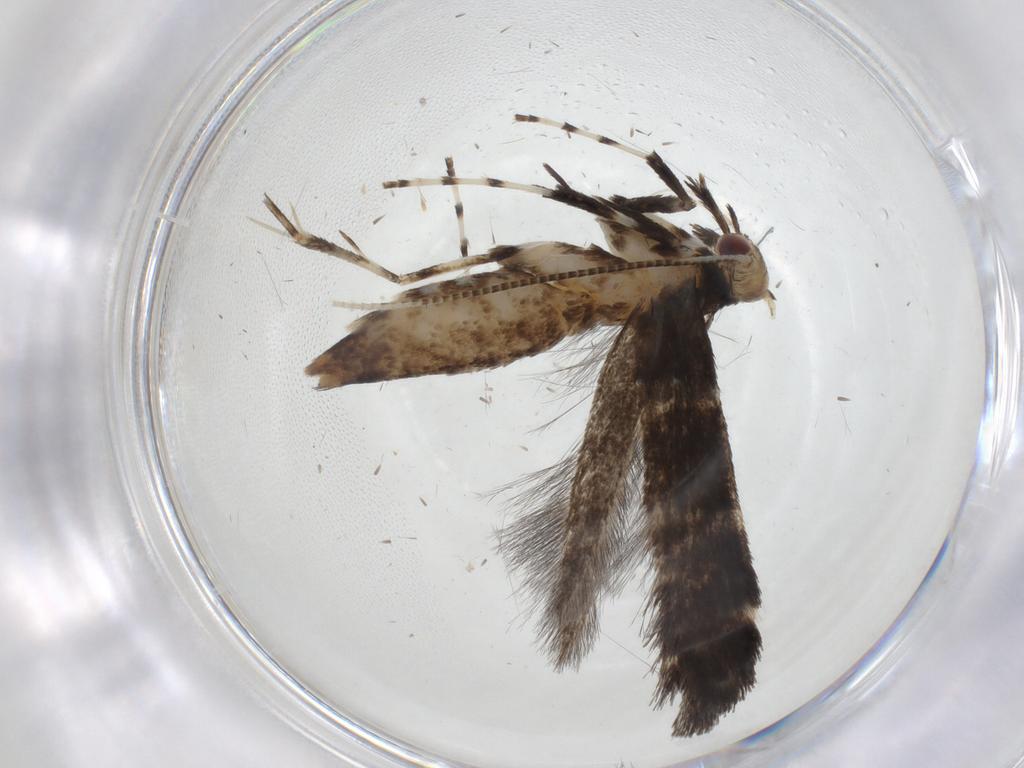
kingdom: Animalia
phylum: Arthropoda
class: Insecta
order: Lepidoptera
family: Gracillariidae
